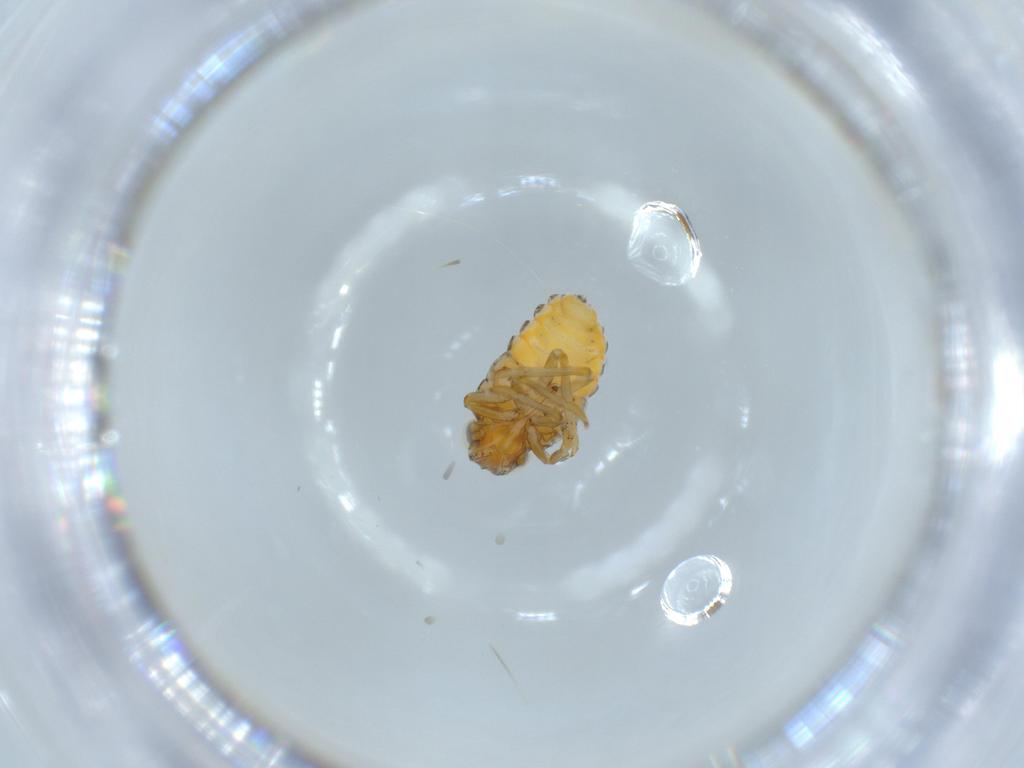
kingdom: Animalia
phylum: Arthropoda
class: Insecta
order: Hemiptera
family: Issidae
